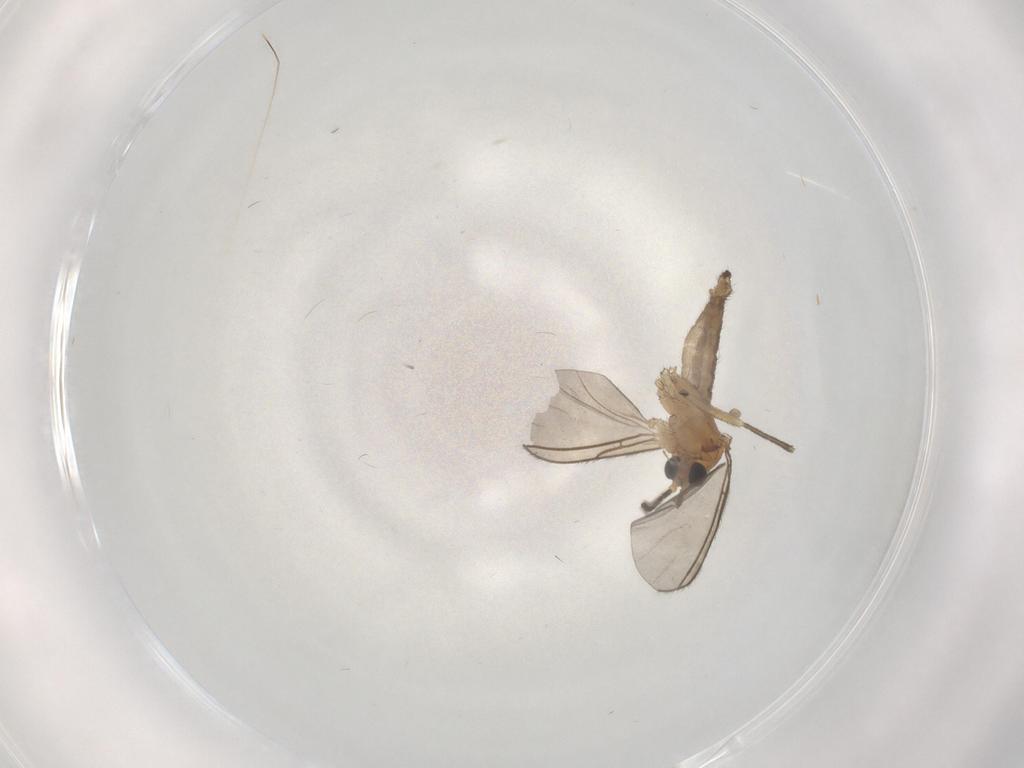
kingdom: Animalia
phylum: Arthropoda
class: Insecta
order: Diptera
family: Sciaridae
